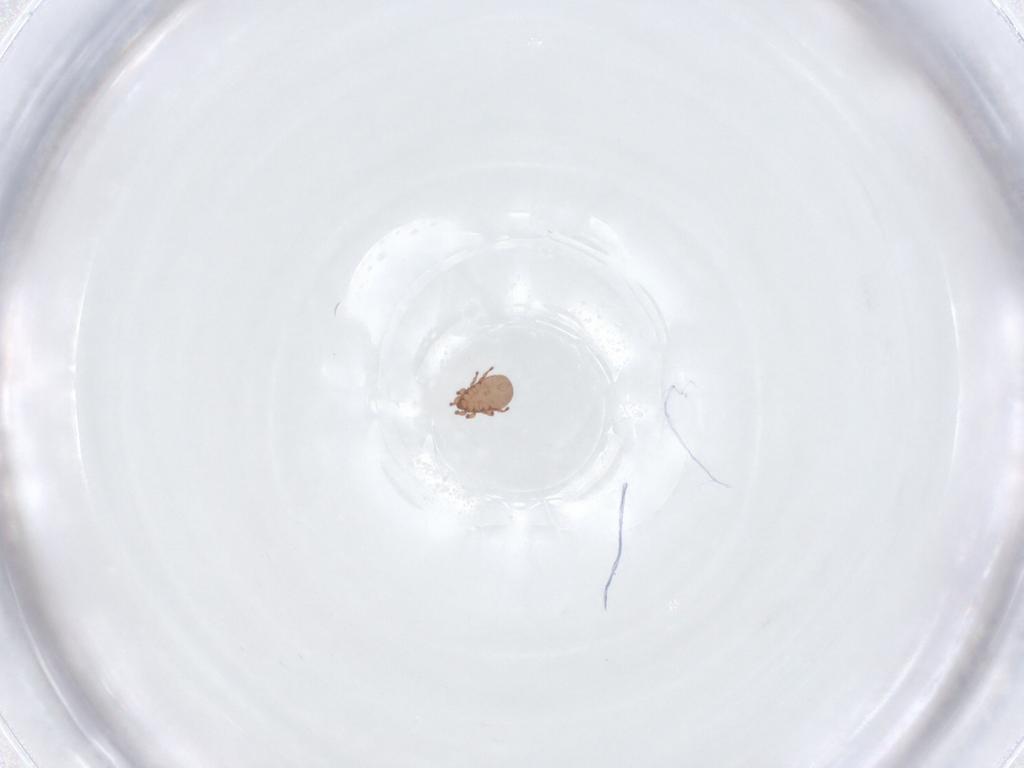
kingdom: Animalia
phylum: Arthropoda
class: Arachnida
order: Sarcoptiformes
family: Eremaeidae
